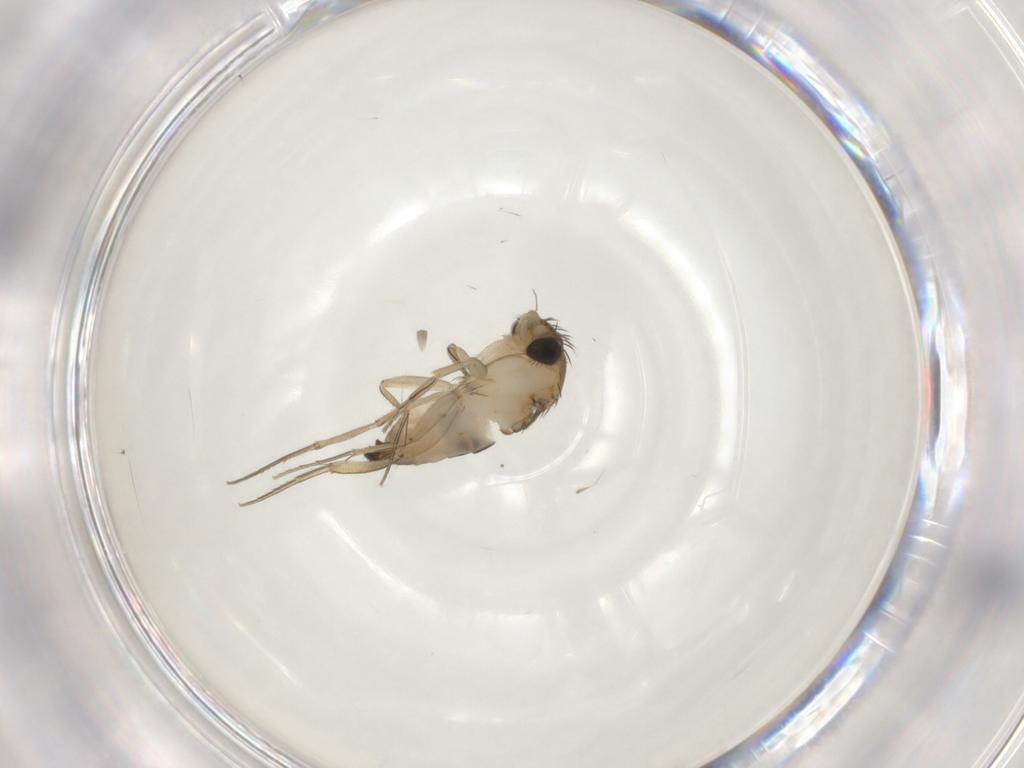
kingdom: Animalia
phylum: Arthropoda
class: Insecta
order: Diptera
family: Phoridae
